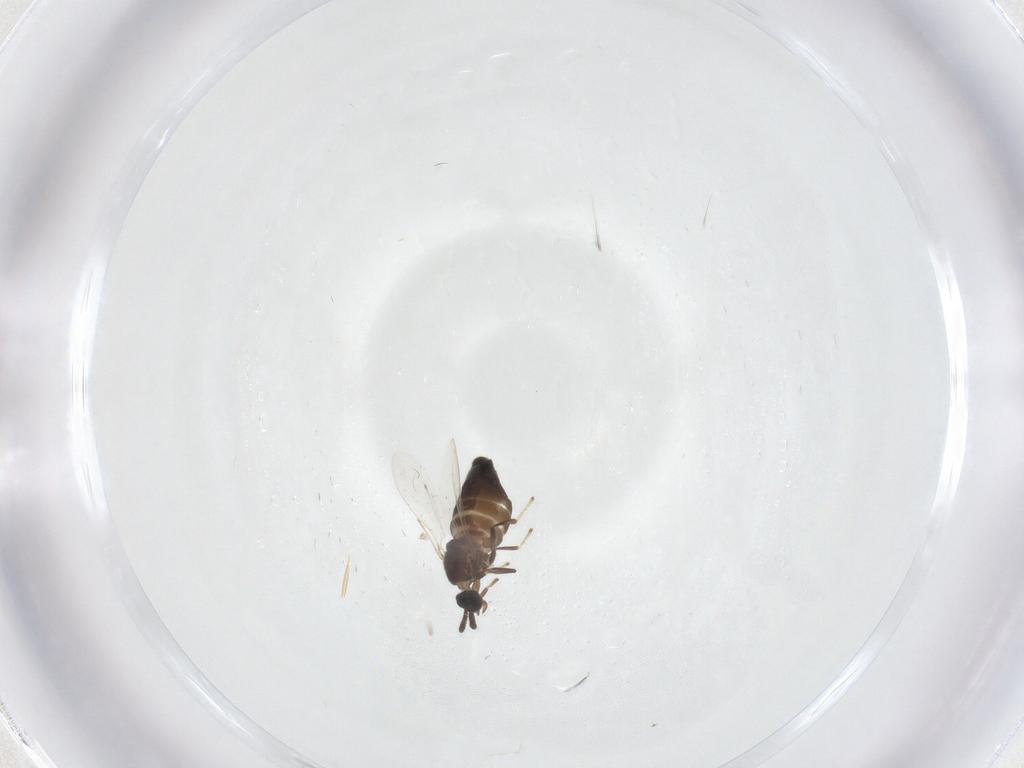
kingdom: Animalia
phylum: Arthropoda
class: Insecta
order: Diptera
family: Scatopsidae
